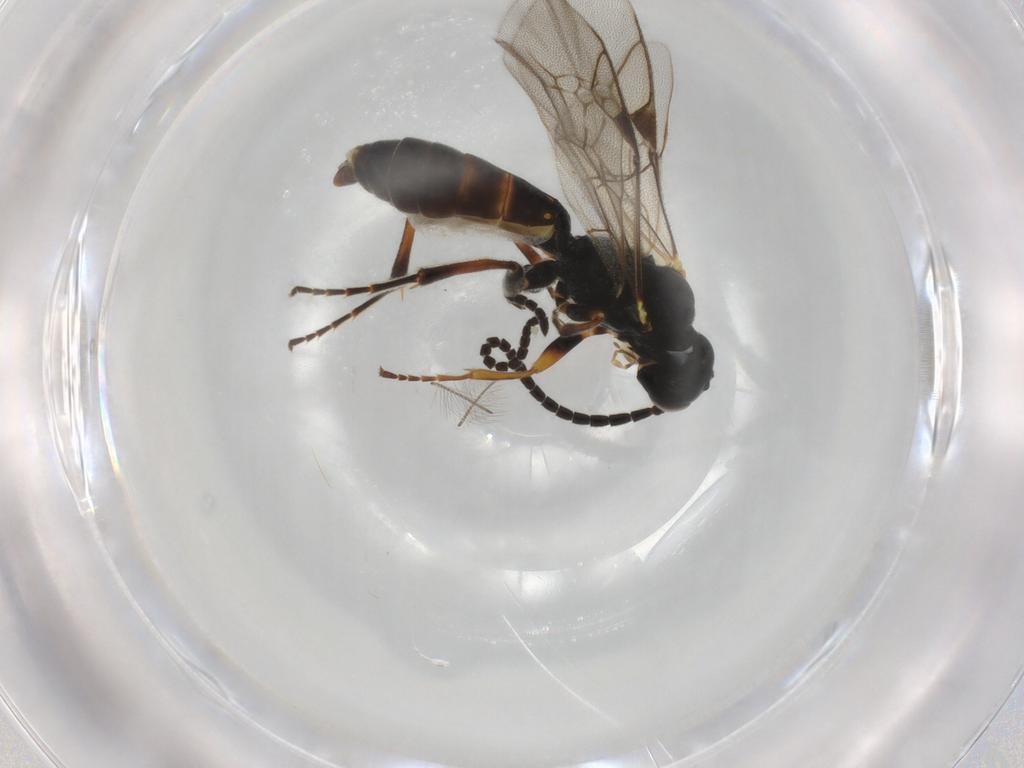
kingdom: Animalia
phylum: Arthropoda
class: Insecta
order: Hymenoptera
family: Ichneumonidae
